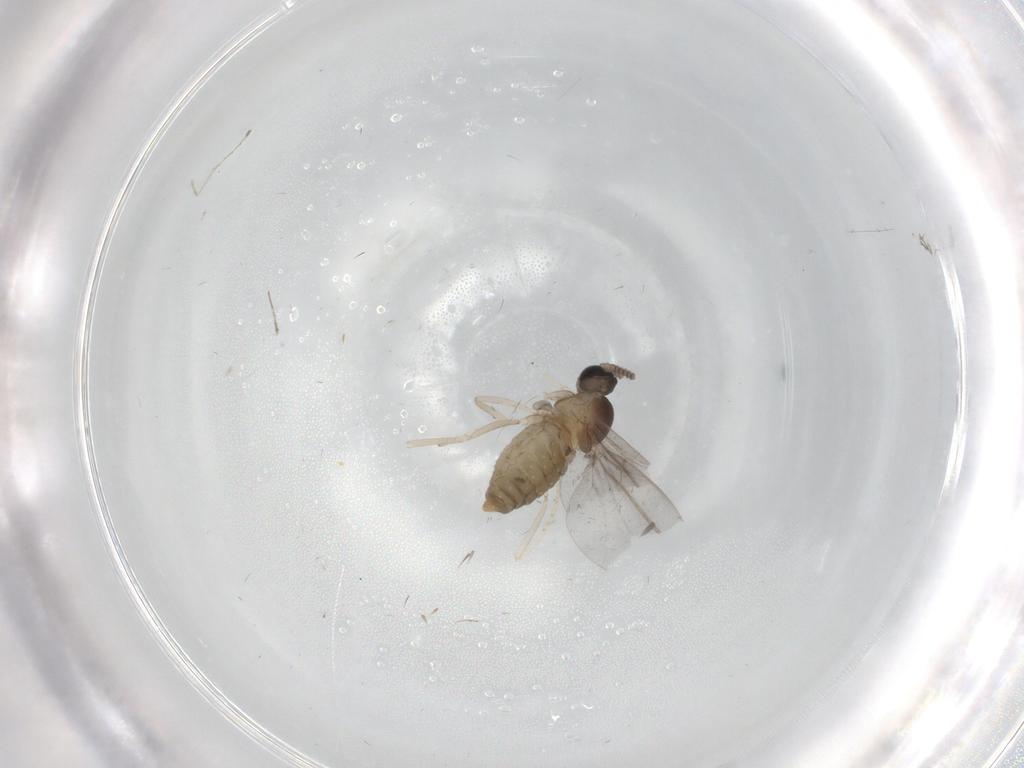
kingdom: Animalia
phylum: Arthropoda
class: Insecta
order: Diptera
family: Cecidomyiidae
